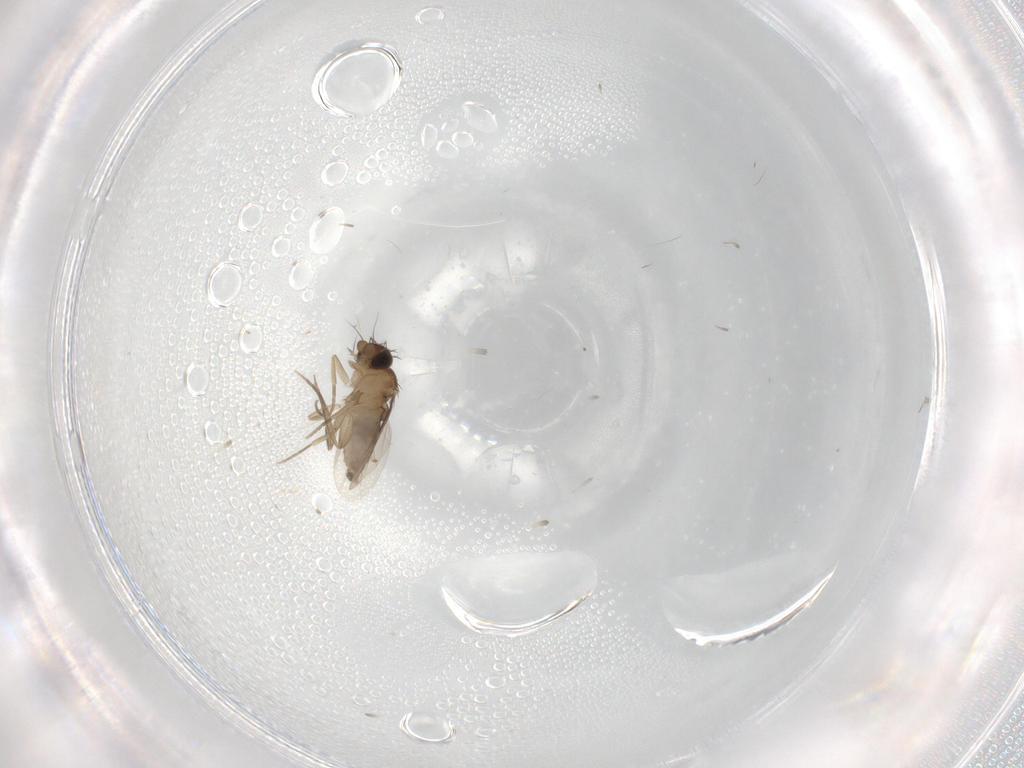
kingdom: Animalia
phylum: Arthropoda
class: Insecta
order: Diptera
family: Phoridae
